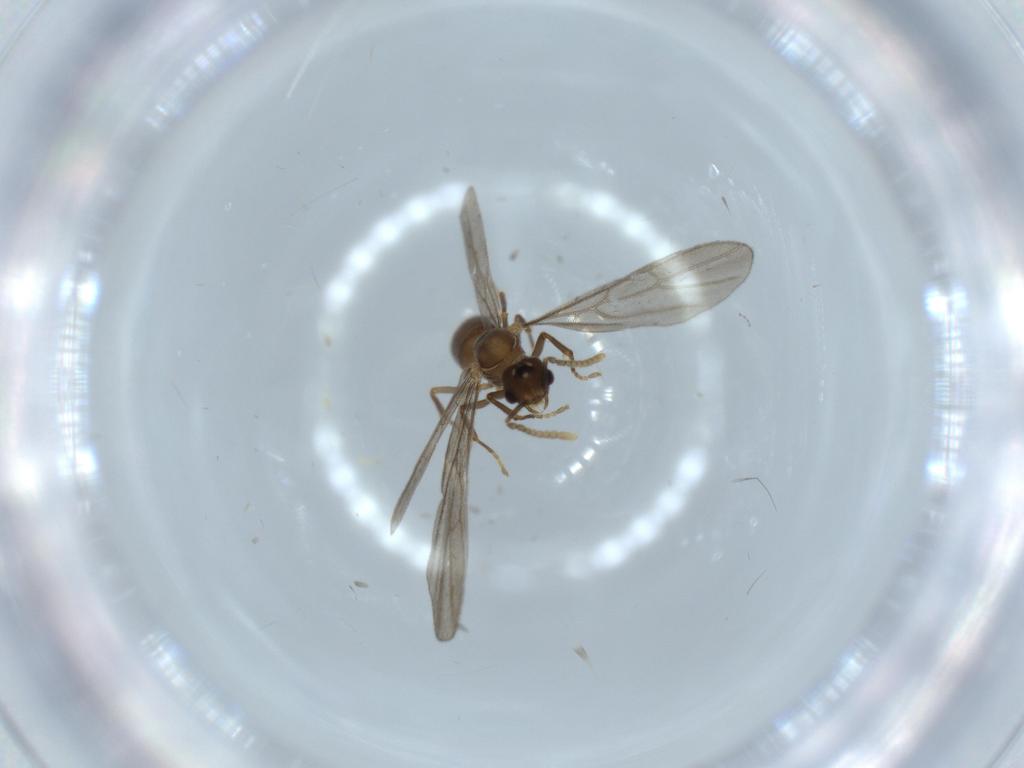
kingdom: Animalia
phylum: Arthropoda
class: Insecta
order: Hymenoptera
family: Formicidae
